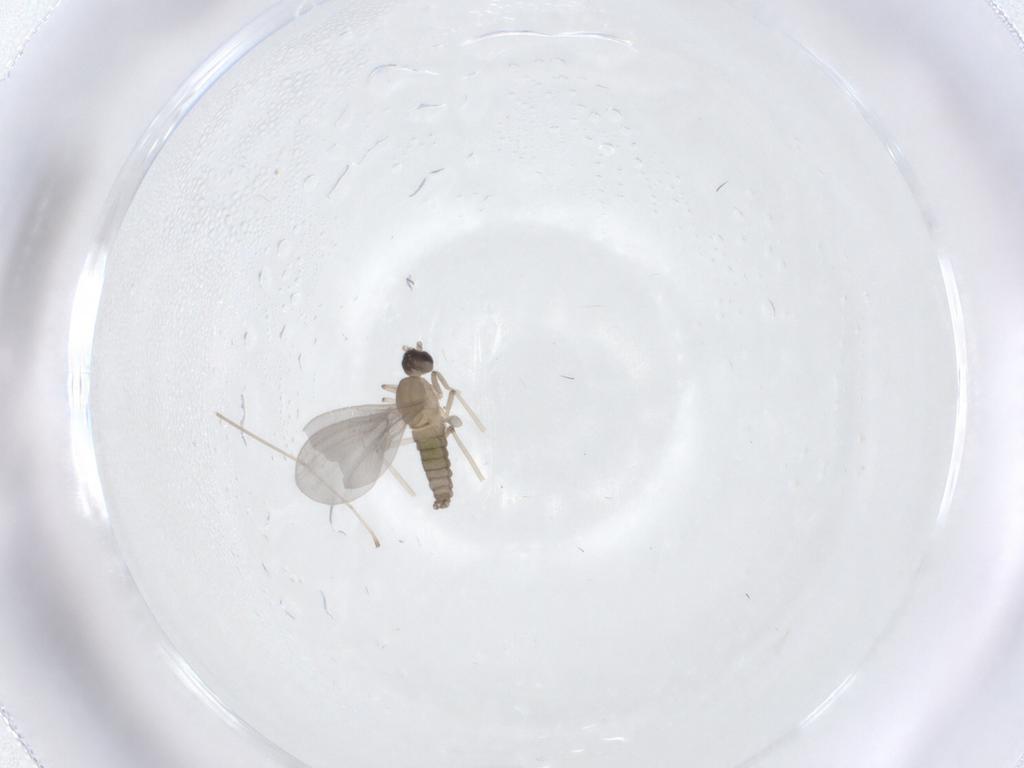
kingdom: Animalia
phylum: Arthropoda
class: Insecta
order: Diptera
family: Cecidomyiidae
